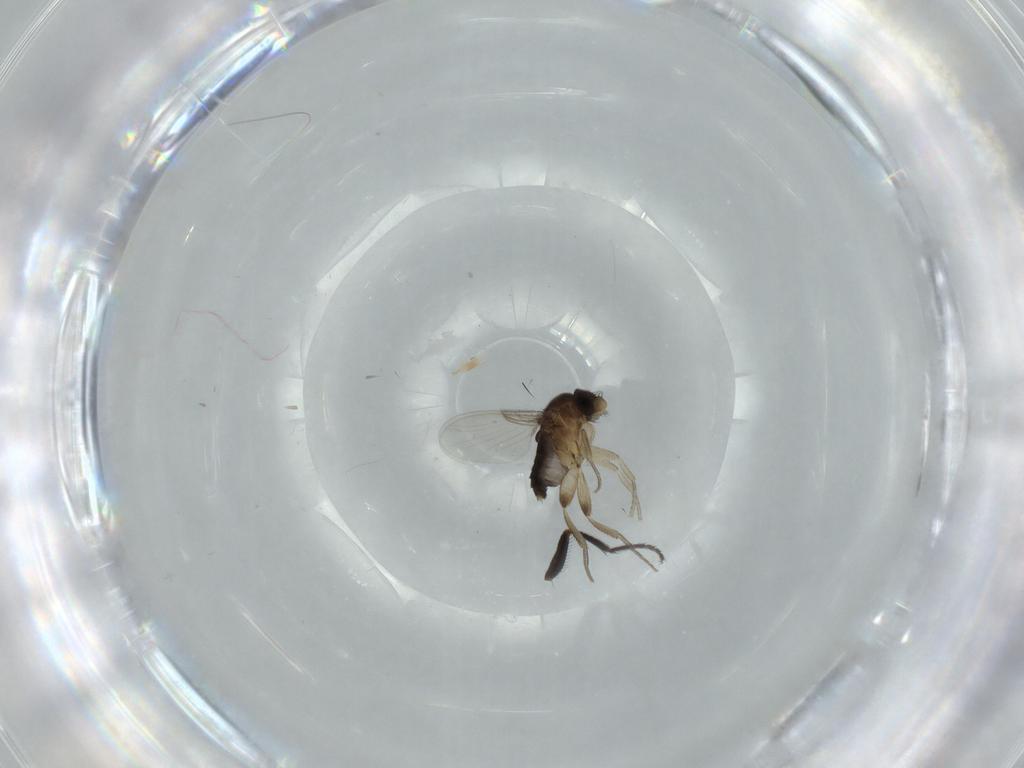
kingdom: Animalia
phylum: Arthropoda
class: Insecta
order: Diptera
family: Phoridae
